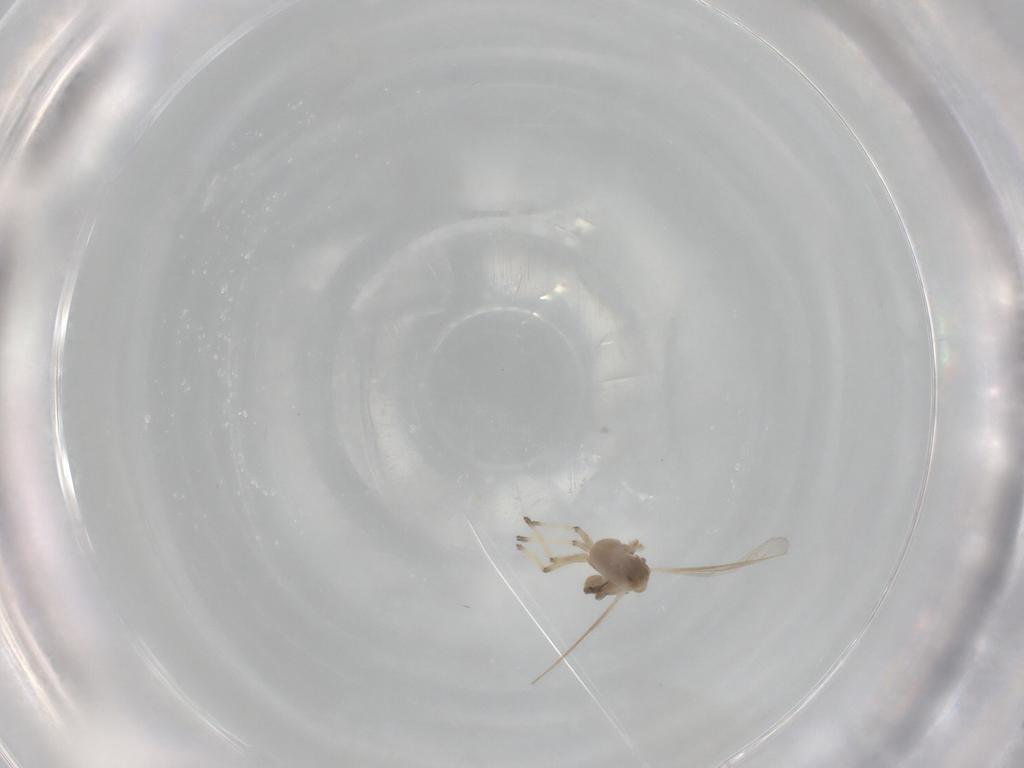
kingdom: Animalia
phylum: Arthropoda
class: Insecta
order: Diptera
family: Chironomidae
